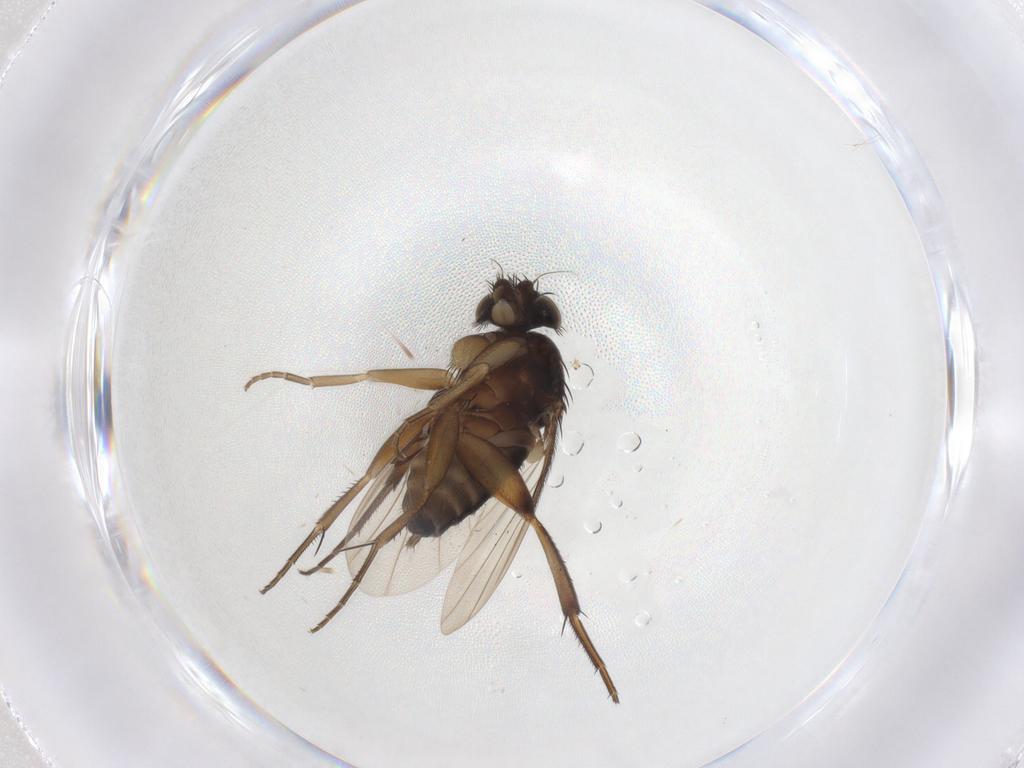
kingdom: Animalia
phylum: Arthropoda
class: Insecta
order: Diptera
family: Phoridae
